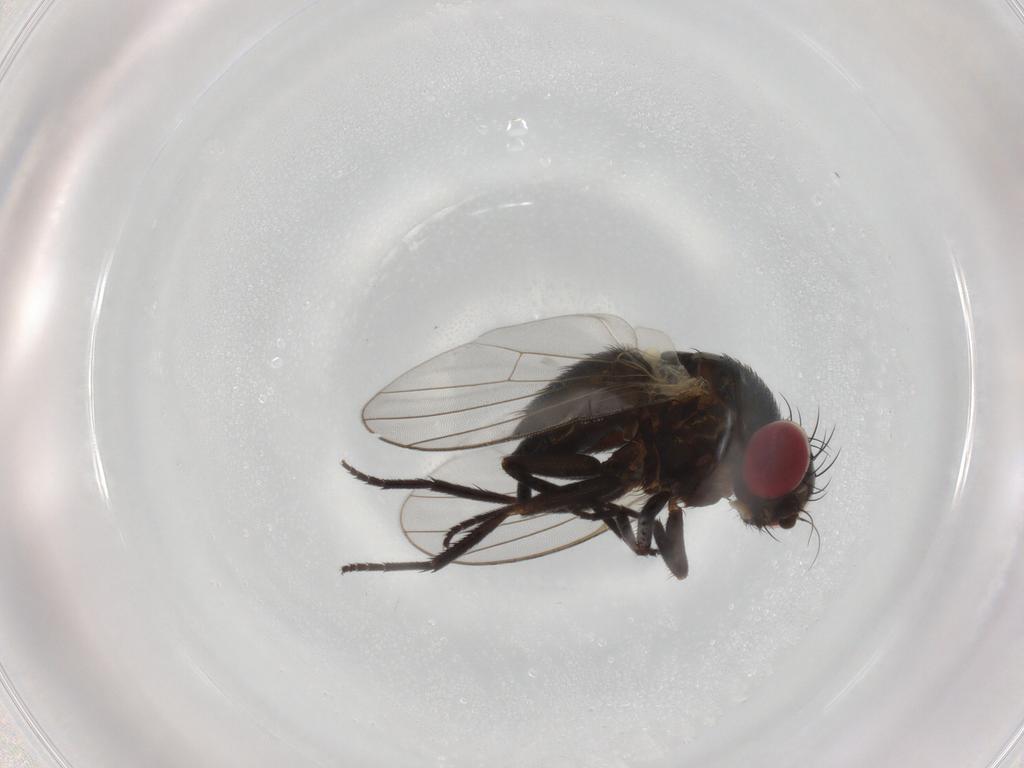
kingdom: Animalia
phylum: Arthropoda
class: Insecta
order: Diptera
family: Agromyzidae
